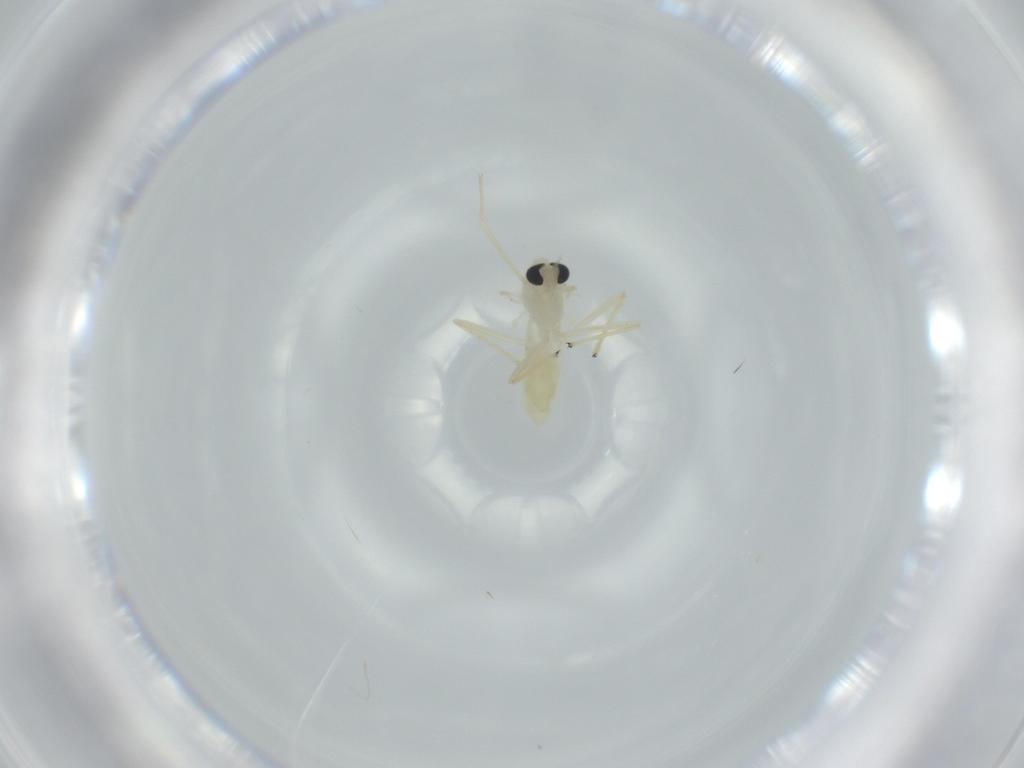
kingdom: Animalia
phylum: Arthropoda
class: Insecta
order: Diptera
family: Chironomidae
